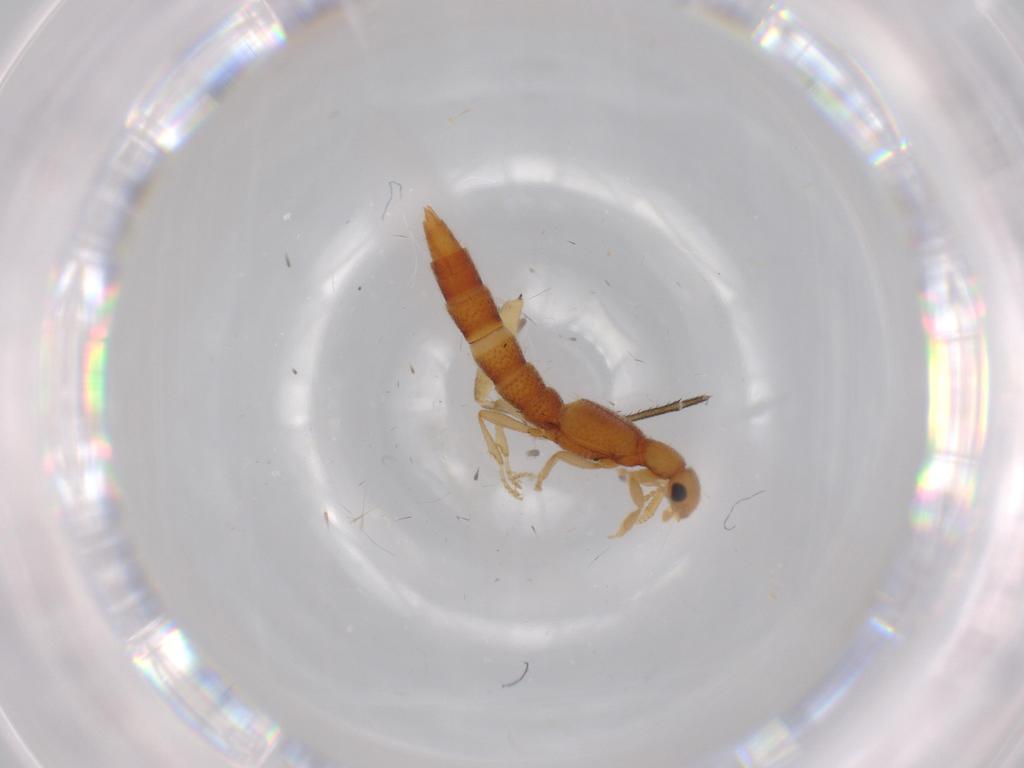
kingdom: Animalia
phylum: Arthropoda
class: Insecta
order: Coleoptera
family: Staphylinidae
